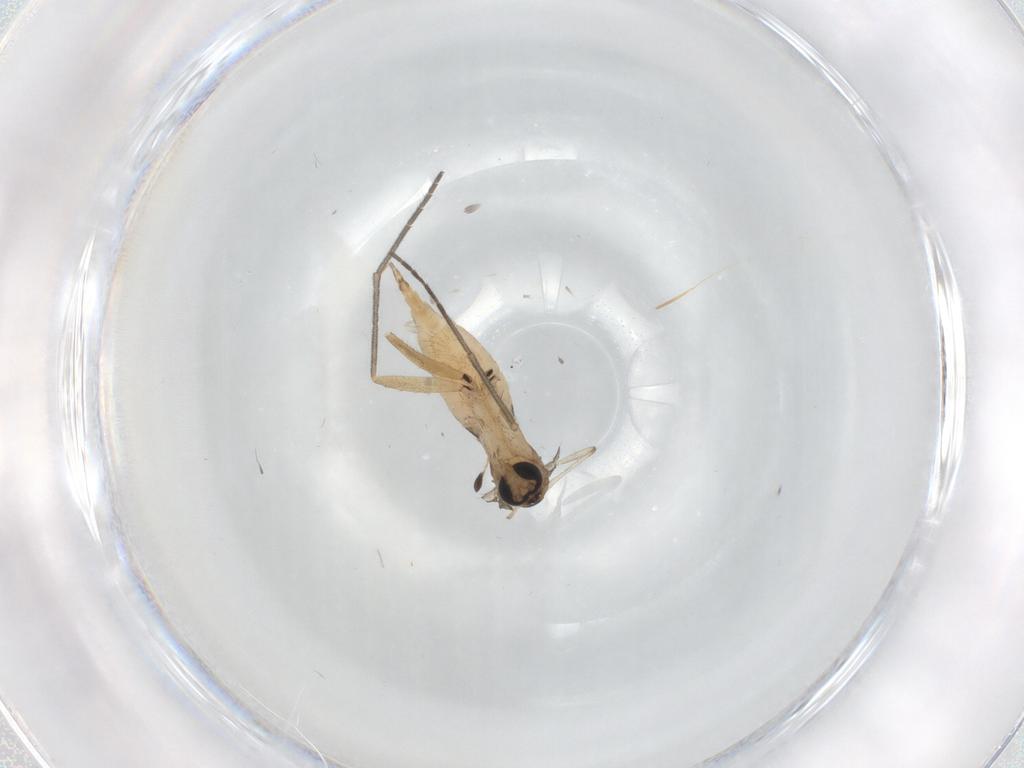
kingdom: Animalia
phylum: Arthropoda
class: Insecta
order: Diptera
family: Sciaridae
